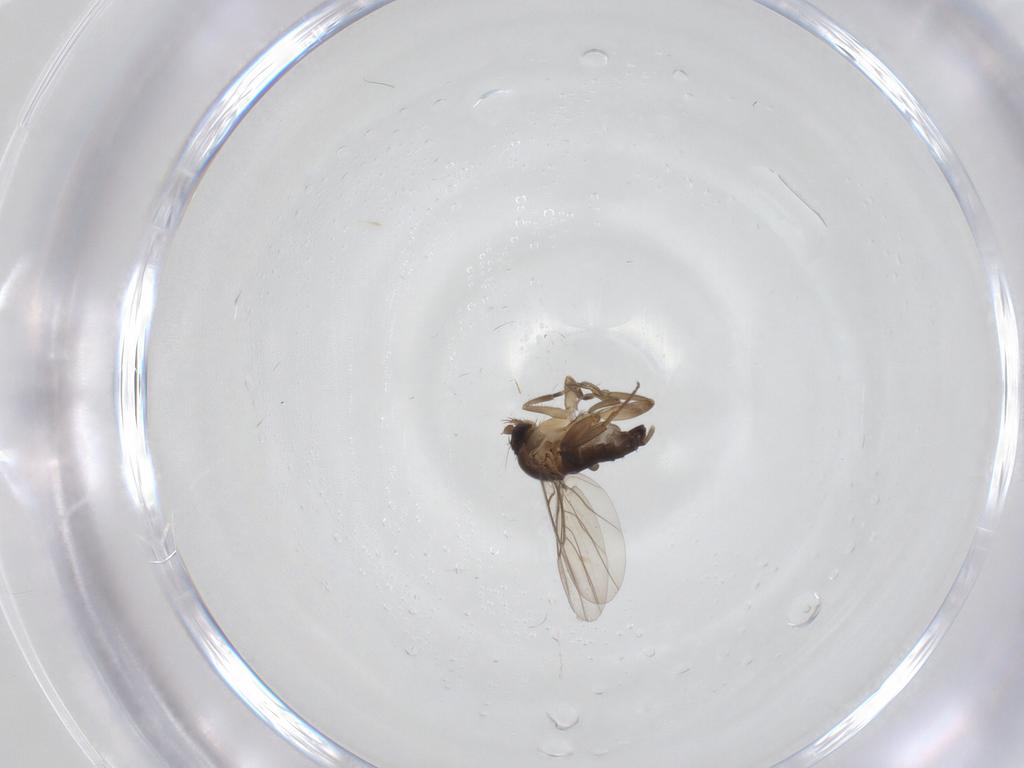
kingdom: Animalia
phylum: Arthropoda
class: Insecta
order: Diptera
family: Phoridae
